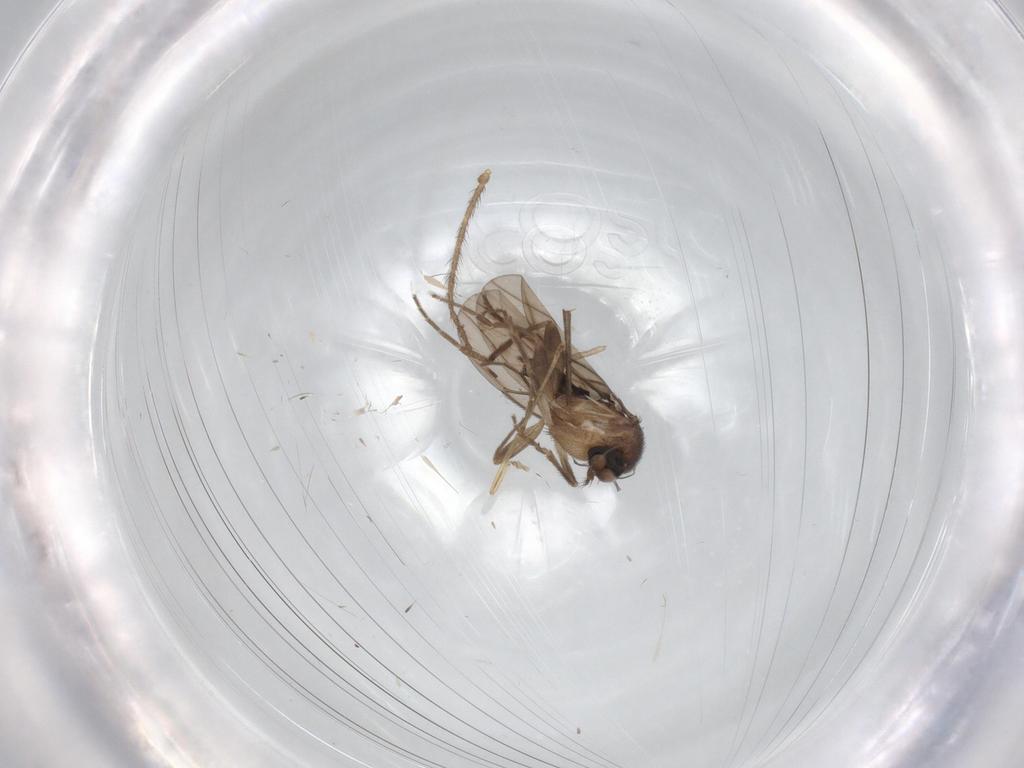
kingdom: Animalia
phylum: Arthropoda
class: Insecta
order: Diptera
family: Limoniidae
